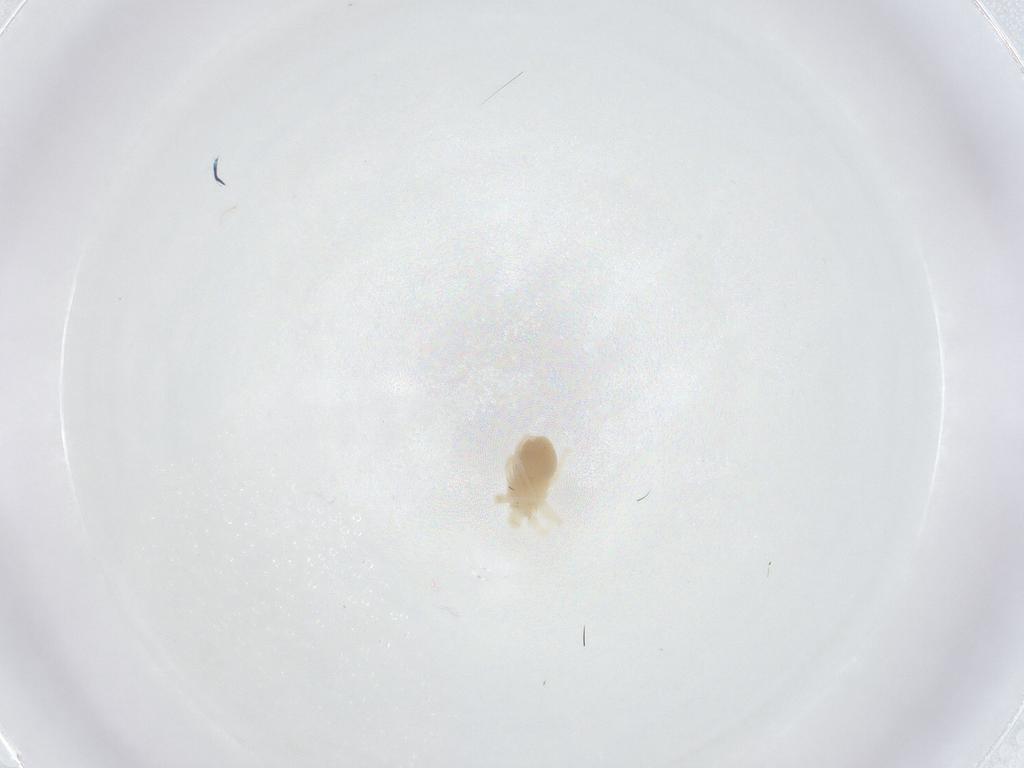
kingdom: Animalia
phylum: Arthropoda
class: Arachnida
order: Trombidiformes
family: Anystidae
